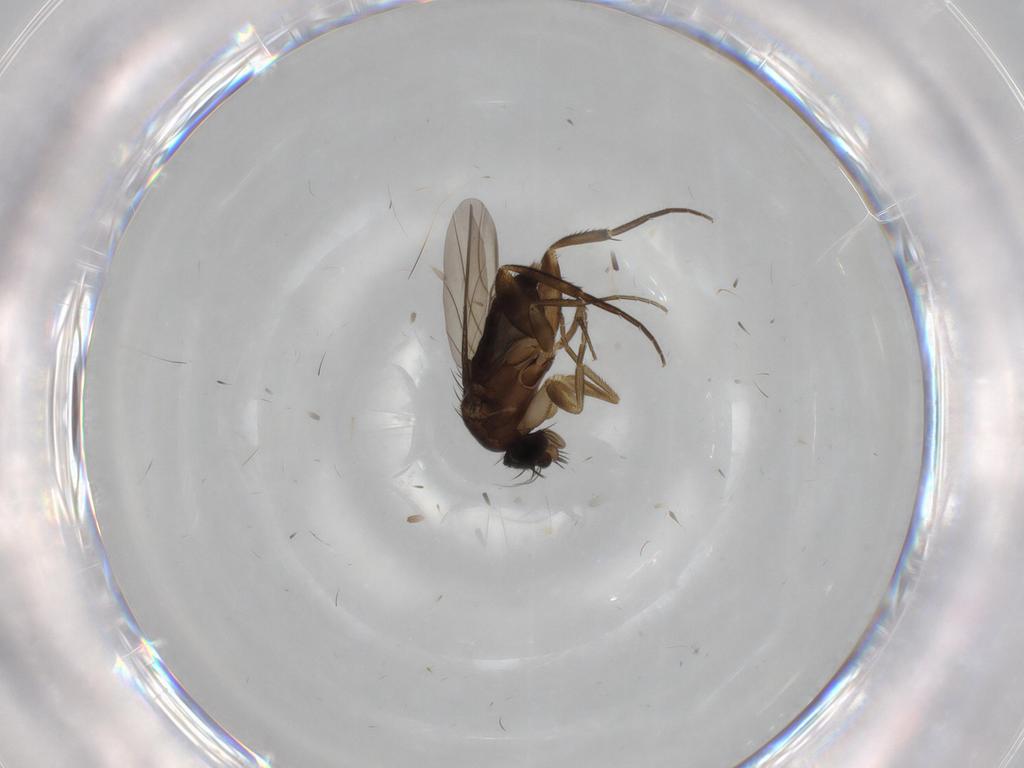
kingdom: Animalia
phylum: Arthropoda
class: Insecta
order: Diptera
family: Phoridae
